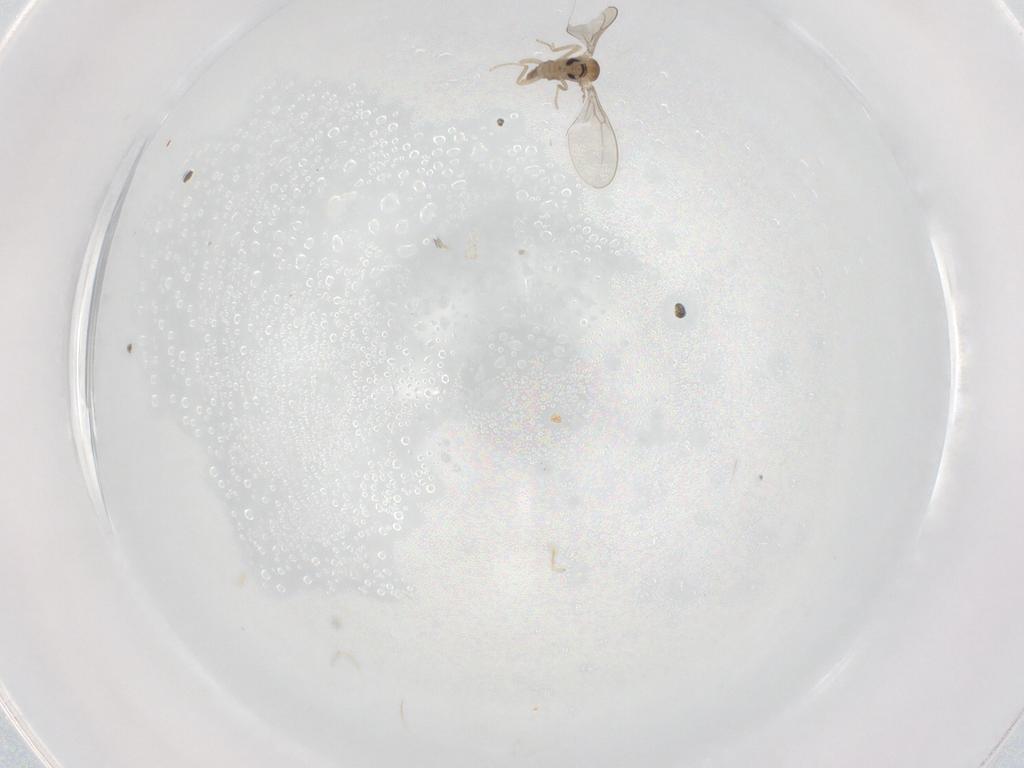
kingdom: Animalia
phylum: Arthropoda
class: Insecta
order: Diptera
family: Cecidomyiidae
